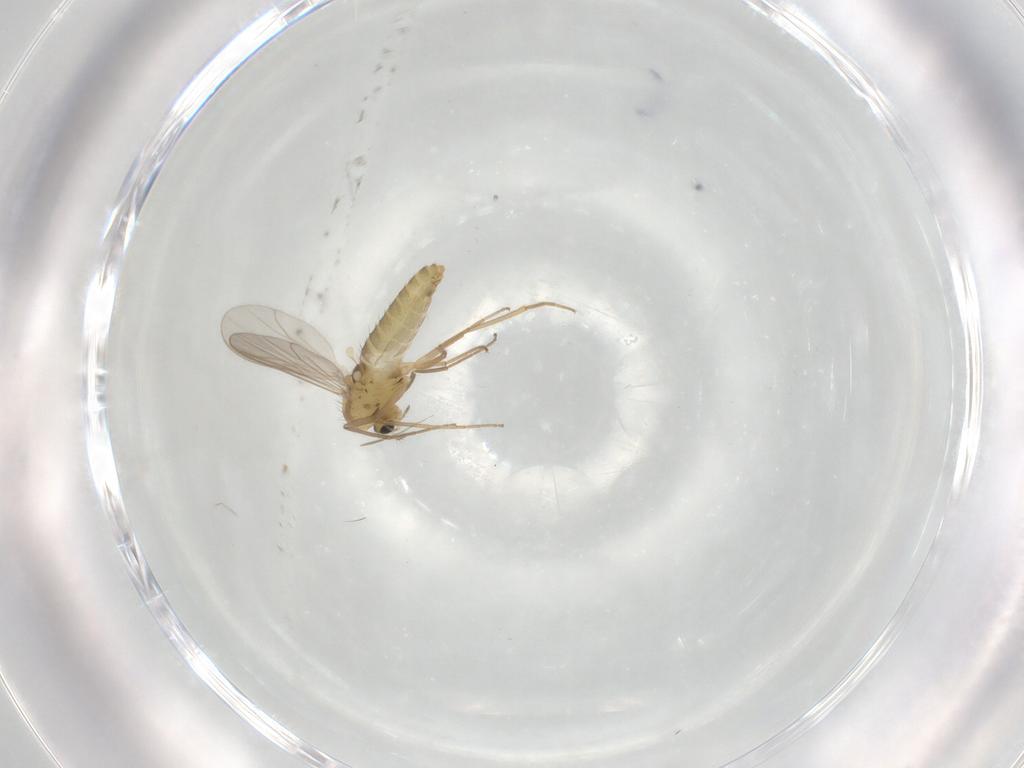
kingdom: Animalia
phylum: Arthropoda
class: Insecta
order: Diptera
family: Chironomidae
